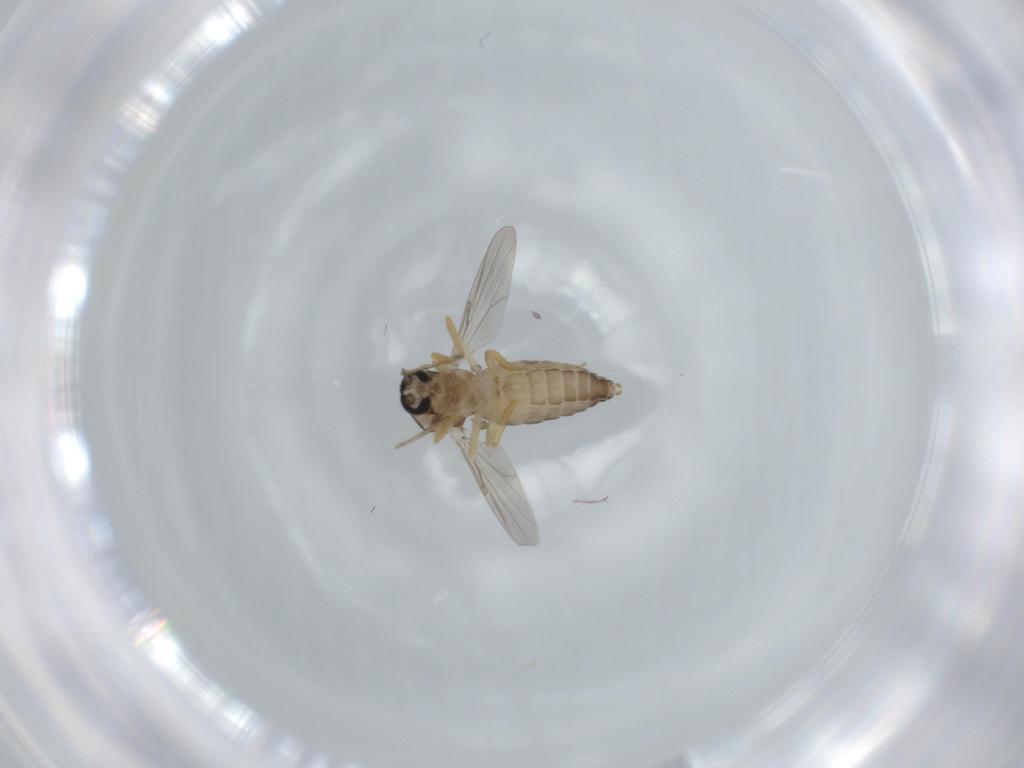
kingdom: Animalia
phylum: Arthropoda
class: Insecta
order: Diptera
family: Ceratopogonidae
